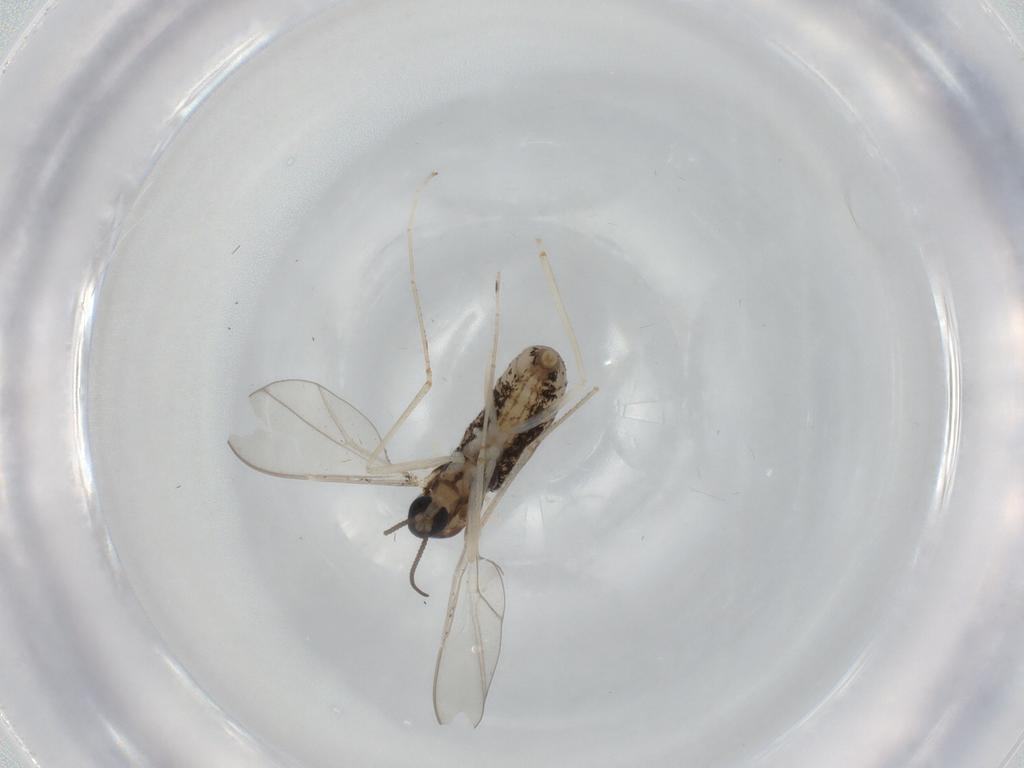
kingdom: Animalia
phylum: Arthropoda
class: Insecta
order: Diptera
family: Cecidomyiidae
